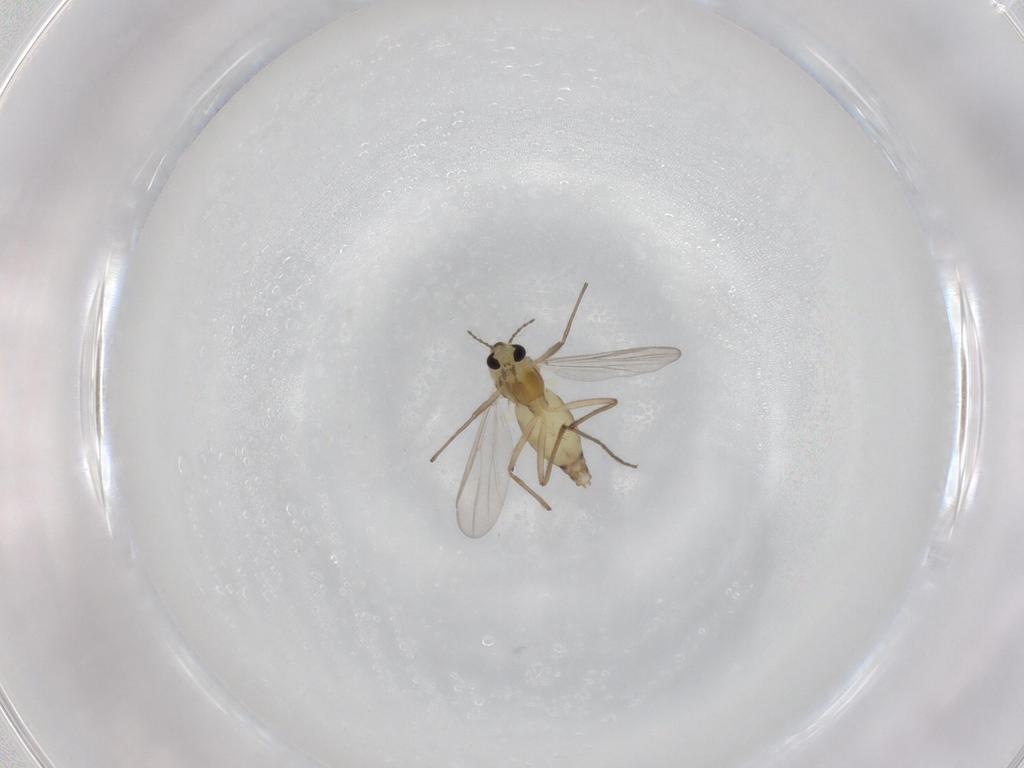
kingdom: Animalia
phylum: Arthropoda
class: Insecta
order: Diptera
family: Chironomidae
